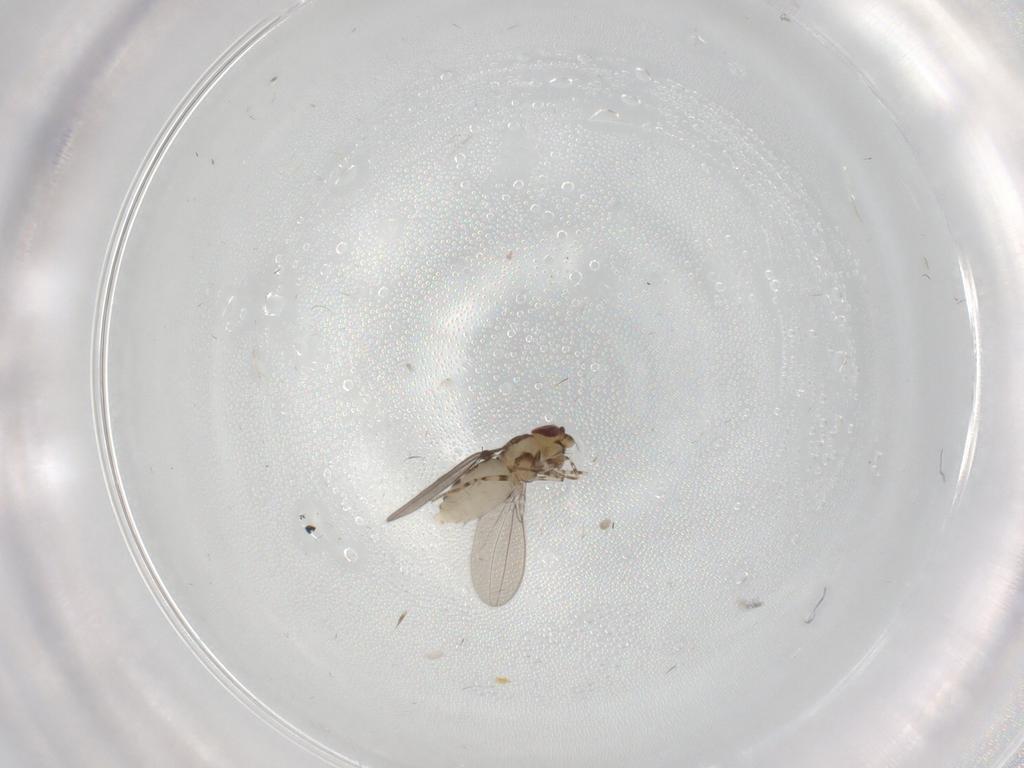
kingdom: Animalia
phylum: Arthropoda
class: Insecta
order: Diptera
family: Asteiidae
